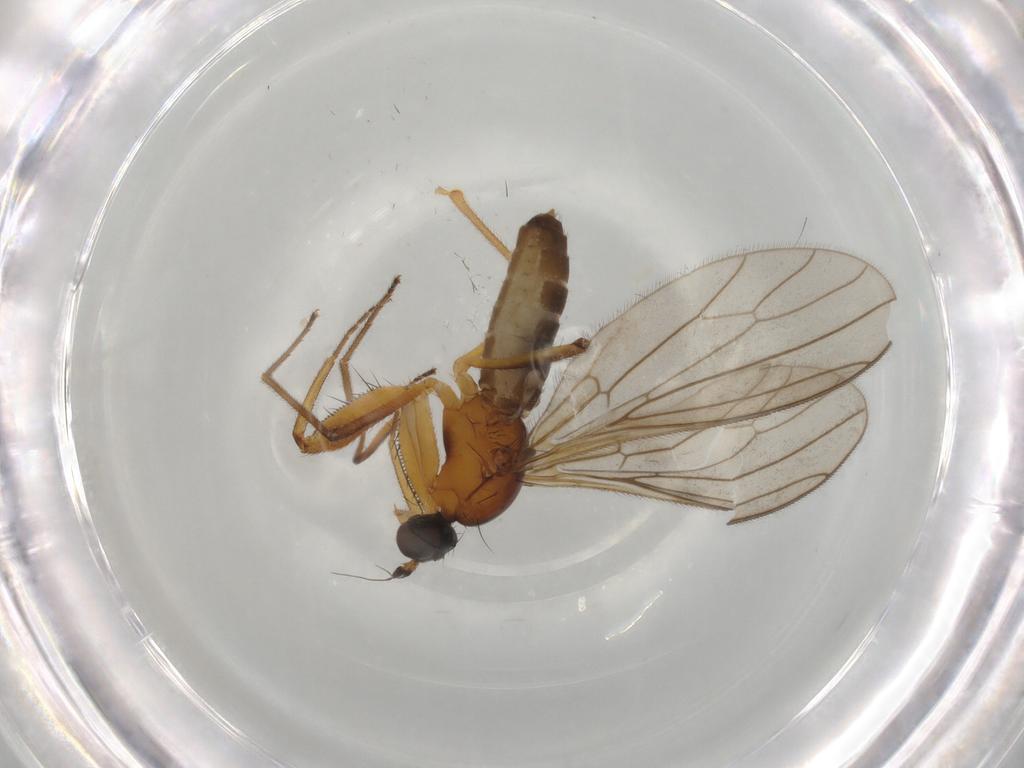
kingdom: Animalia
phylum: Arthropoda
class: Insecta
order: Diptera
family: Empididae
